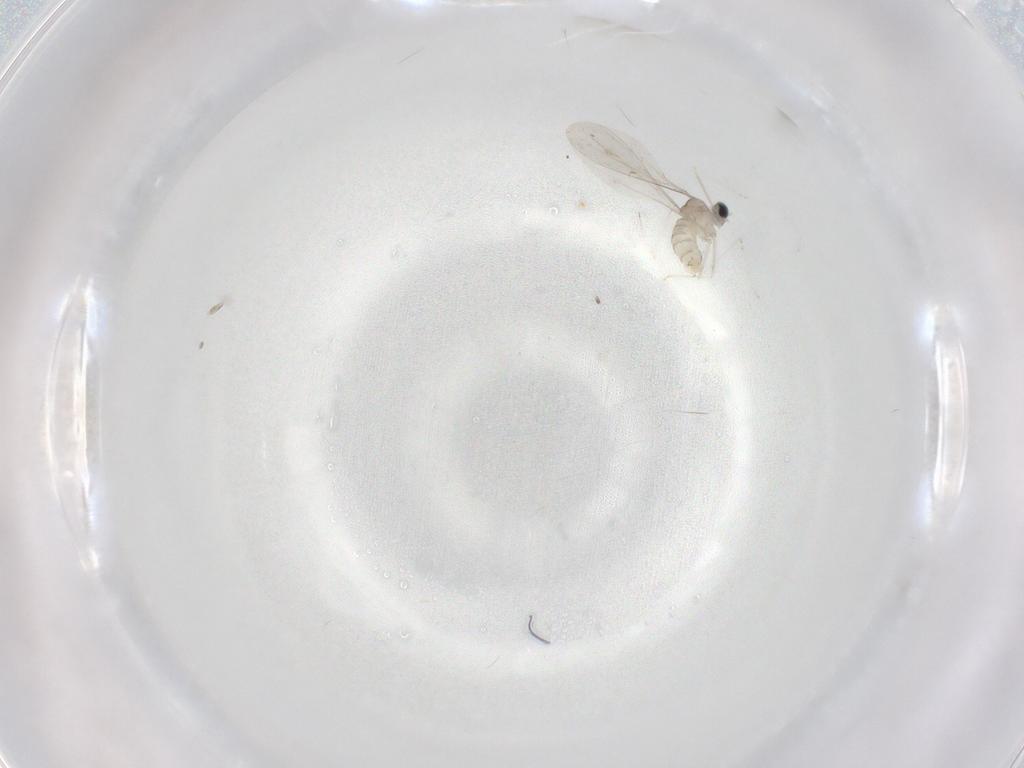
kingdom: Animalia
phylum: Arthropoda
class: Insecta
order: Diptera
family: Cecidomyiidae
